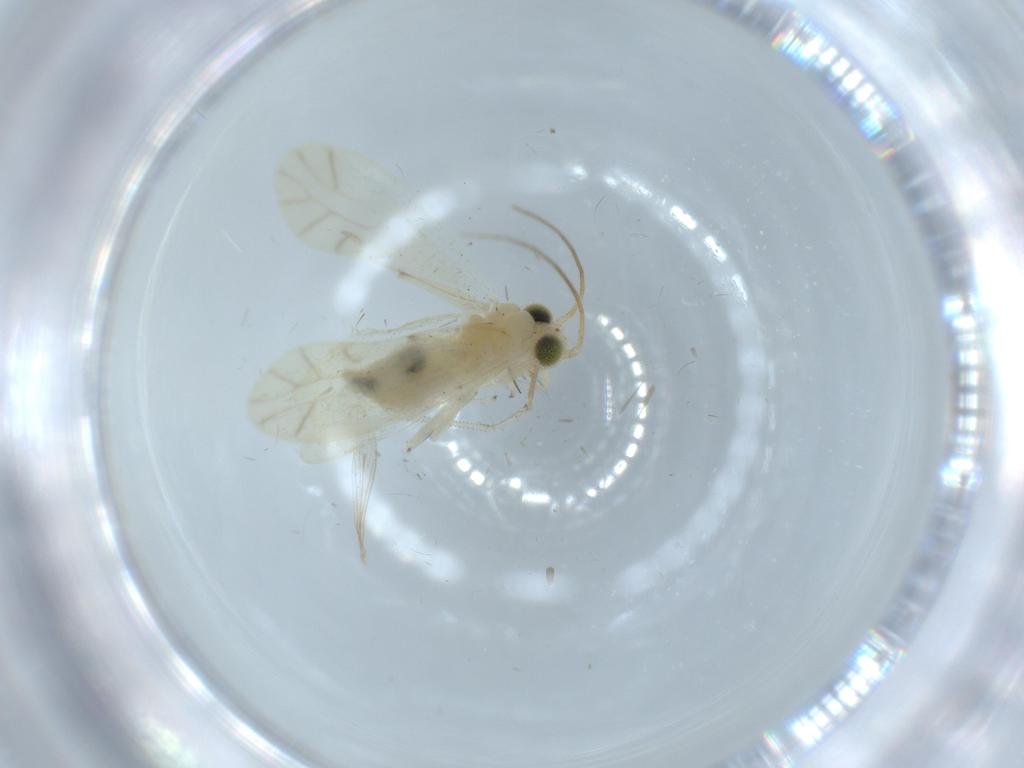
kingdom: Animalia
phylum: Arthropoda
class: Insecta
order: Psocodea
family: Caeciliusidae
